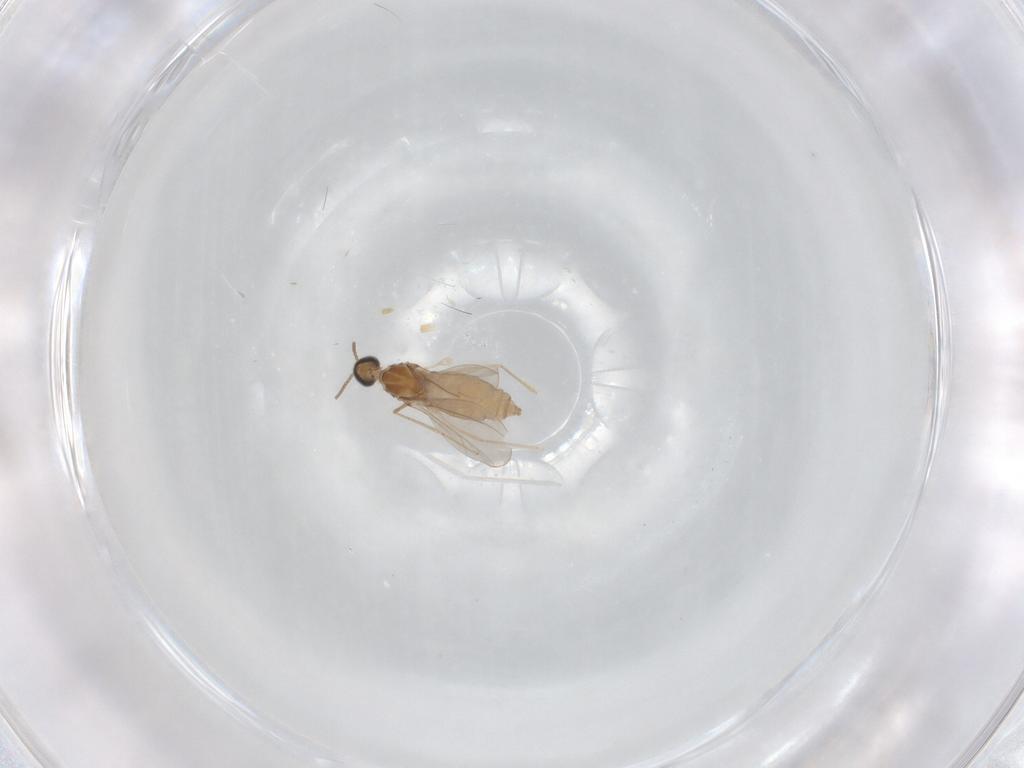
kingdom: Animalia
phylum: Arthropoda
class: Insecta
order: Diptera
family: Cecidomyiidae
